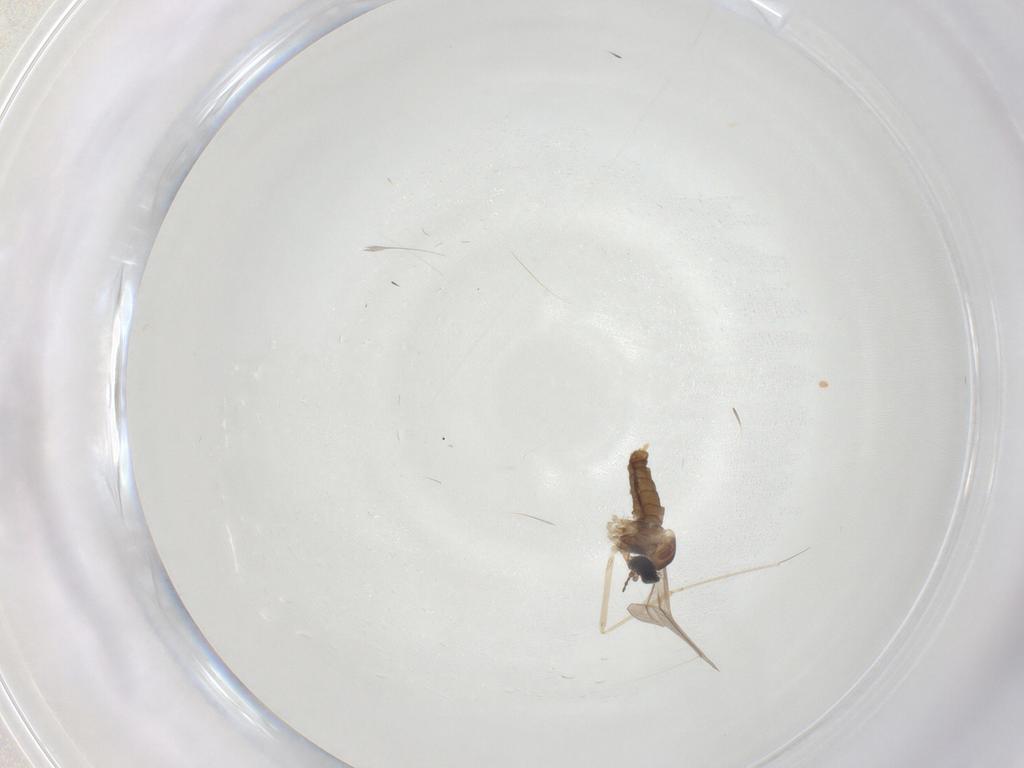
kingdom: Animalia
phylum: Arthropoda
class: Insecta
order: Diptera
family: Cecidomyiidae
